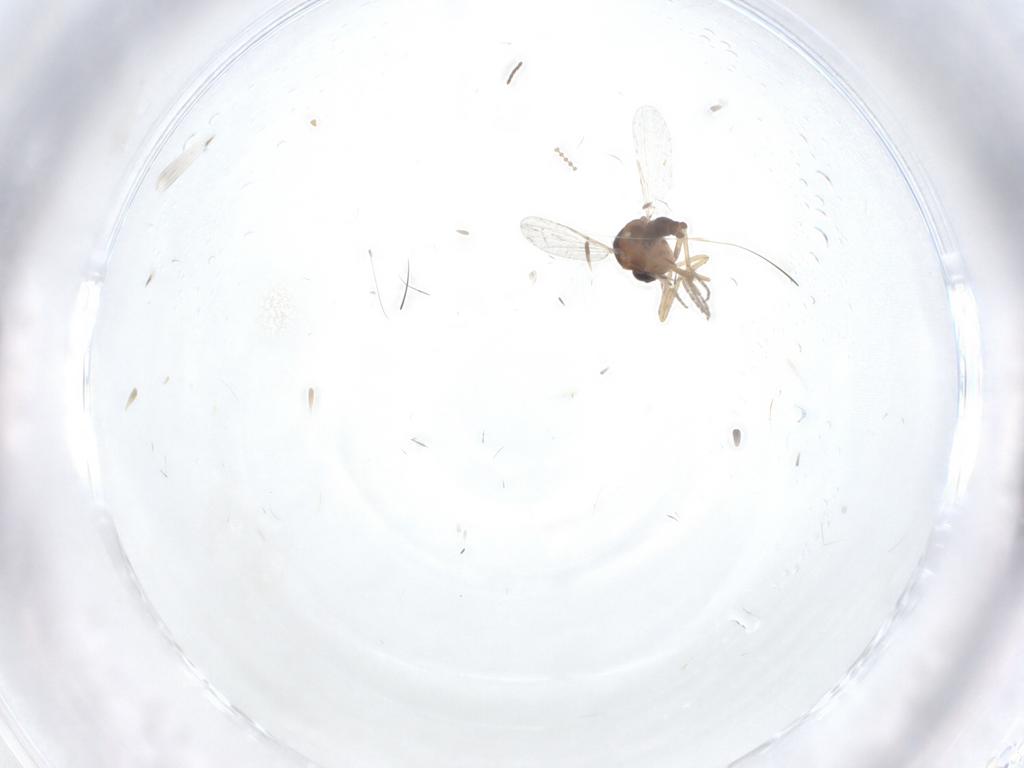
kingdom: Animalia
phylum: Arthropoda
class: Insecta
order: Diptera
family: Ceratopogonidae
